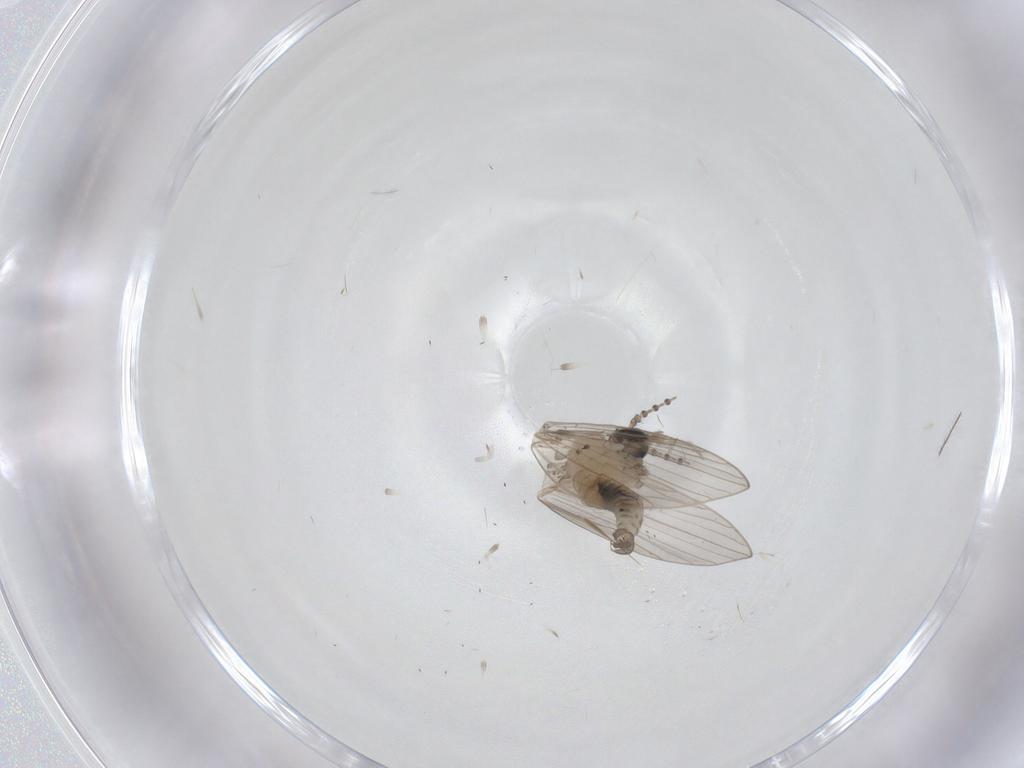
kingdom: Animalia
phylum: Arthropoda
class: Insecta
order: Diptera
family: Psychodidae
